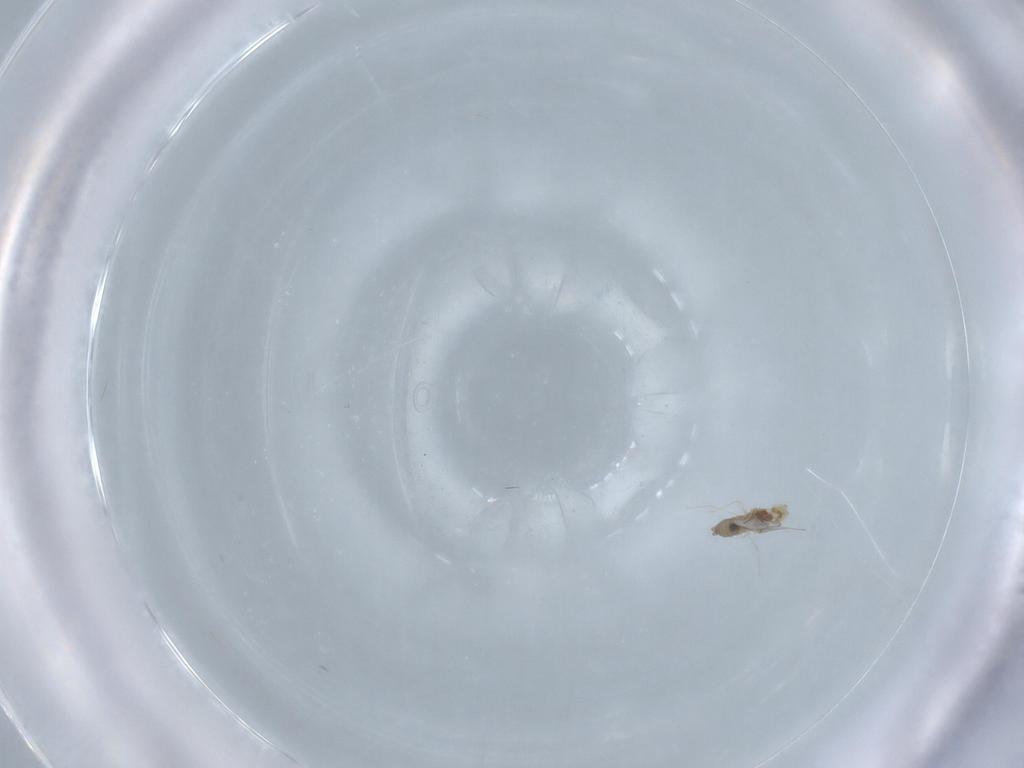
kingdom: Animalia
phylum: Arthropoda
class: Insecta
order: Diptera
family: Cecidomyiidae
